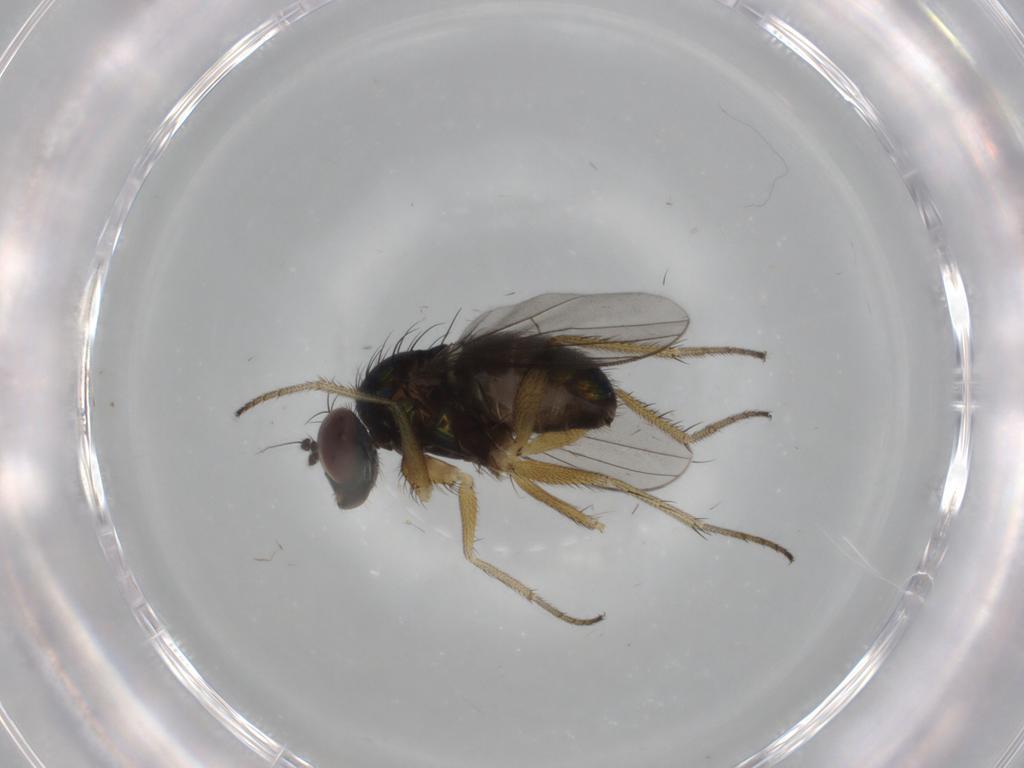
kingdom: Animalia
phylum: Arthropoda
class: Insecta
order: Diptera
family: Dolichopodidae
